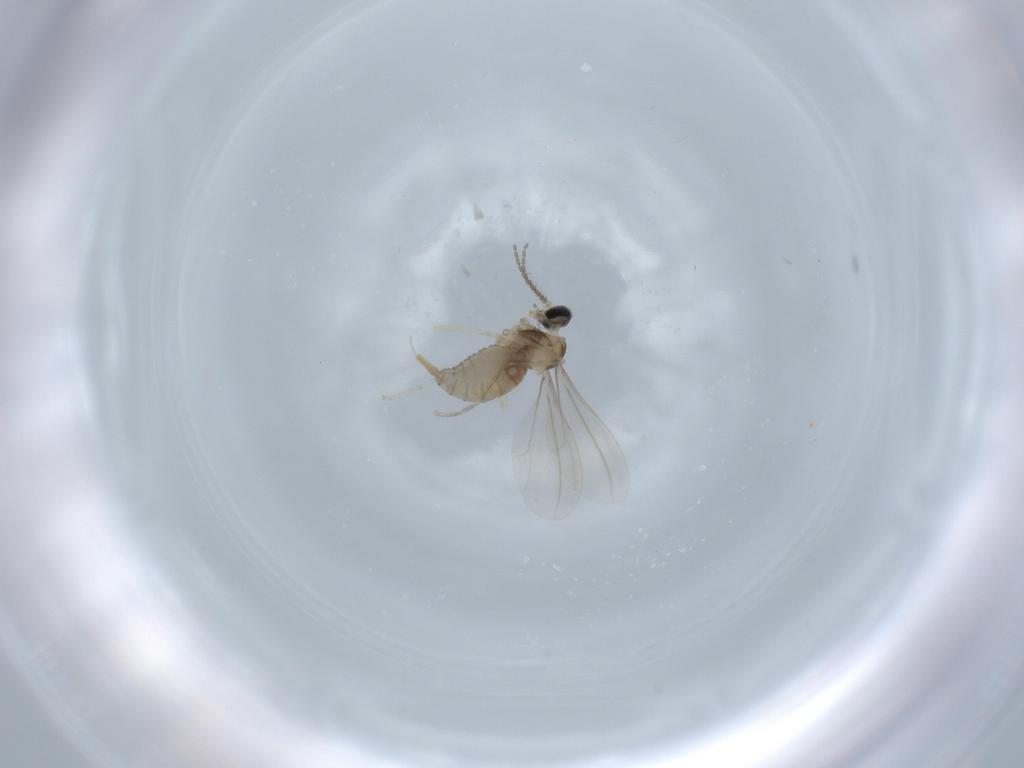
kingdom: Animalia
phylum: Arthropoda
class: Insecta
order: Diptera
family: Cecidomyiidae
